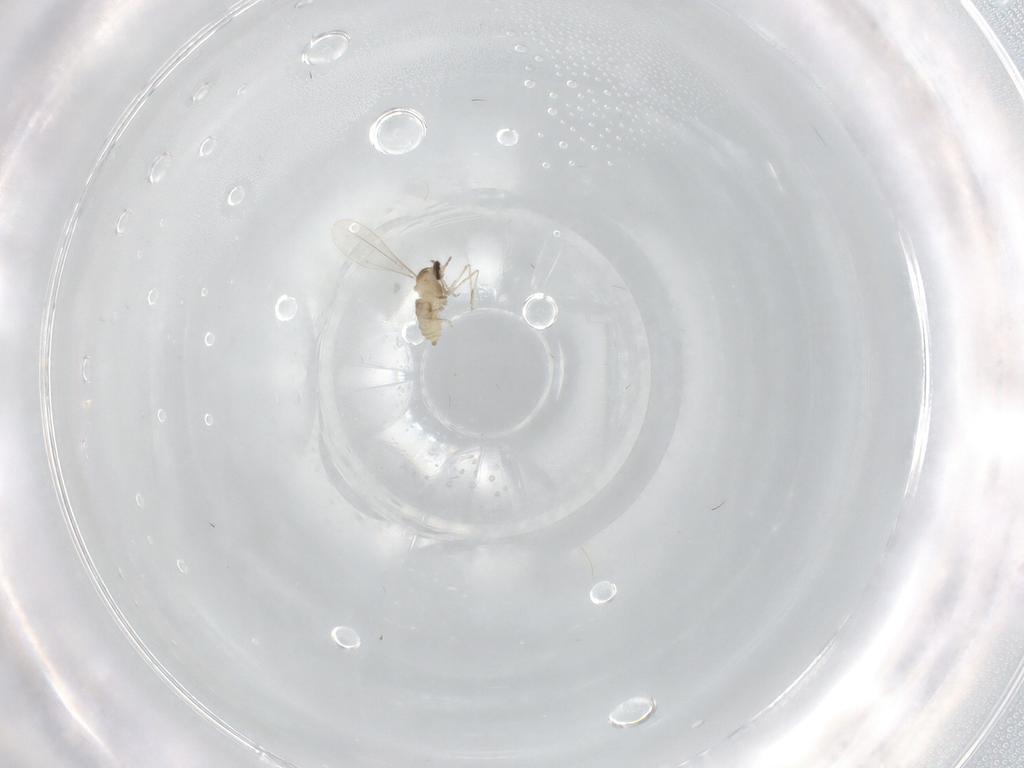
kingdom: Animalia
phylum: Arthropoda
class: Insecta
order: Diptera
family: Cecidomyiidae
